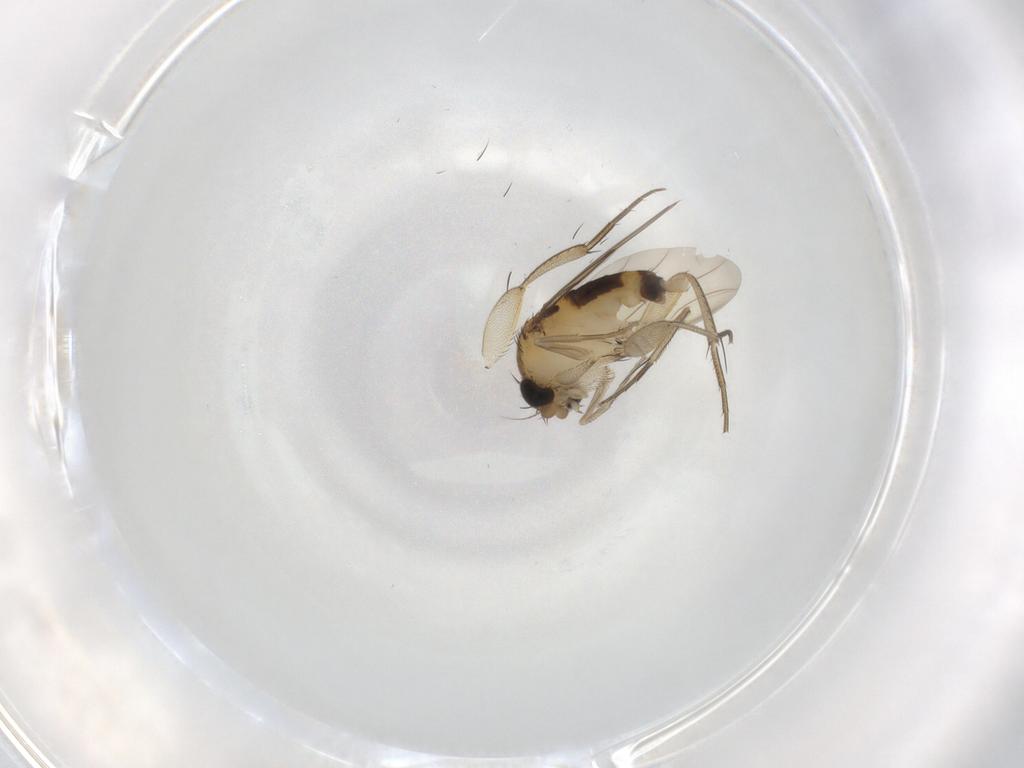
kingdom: Animalia
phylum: Arthropoda
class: Insecta
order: Diptera
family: Phoridae
